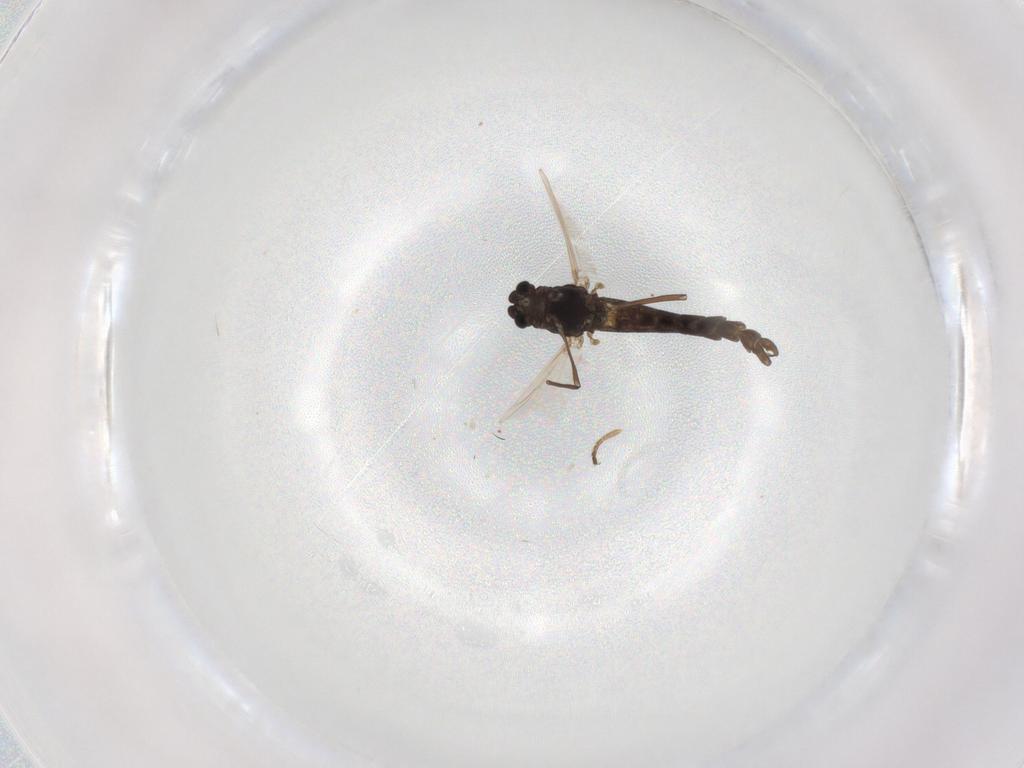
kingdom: Animalia
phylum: Arthropoda
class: Insecta
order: Diptera
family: Chironomidae
